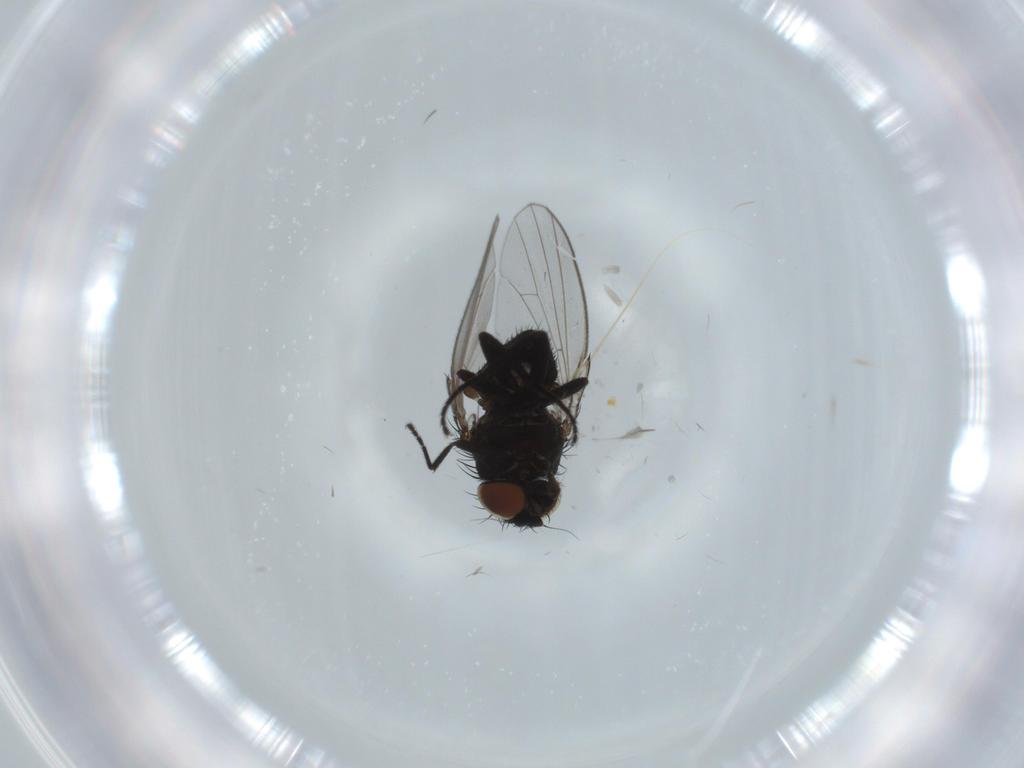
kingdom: Animalia
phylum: Arthropoda
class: Insecta
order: Diptera
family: Milichiidae
